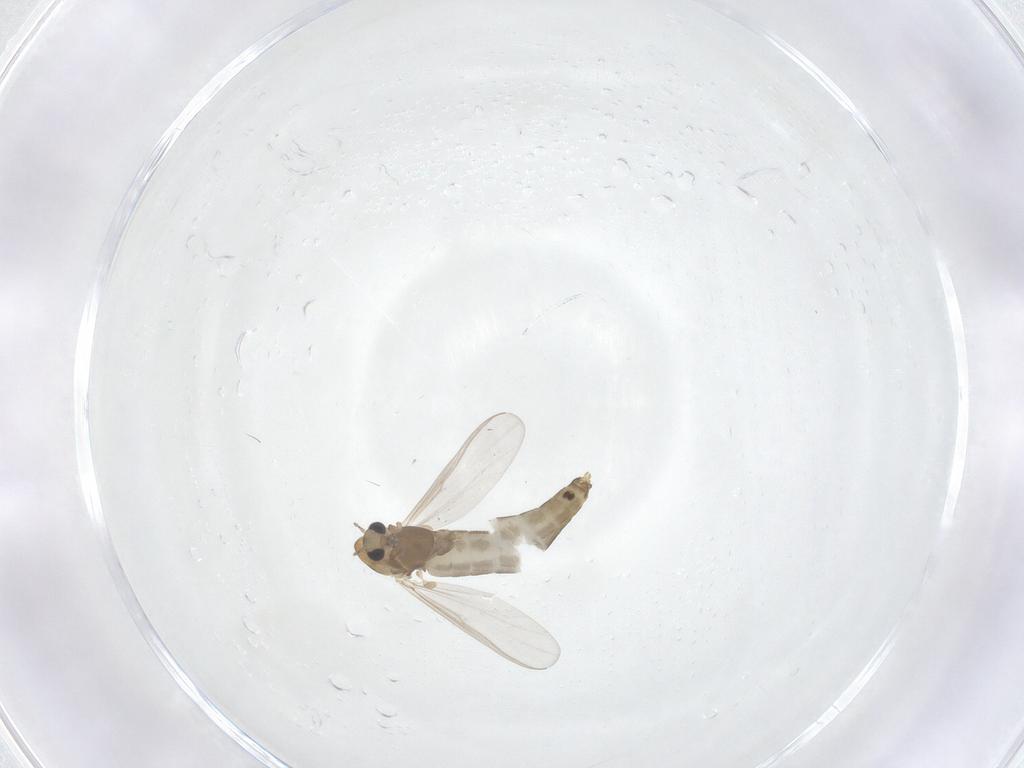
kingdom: Animalia
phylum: Arthropoda
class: Insecta
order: Diptera
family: Chironomidae
